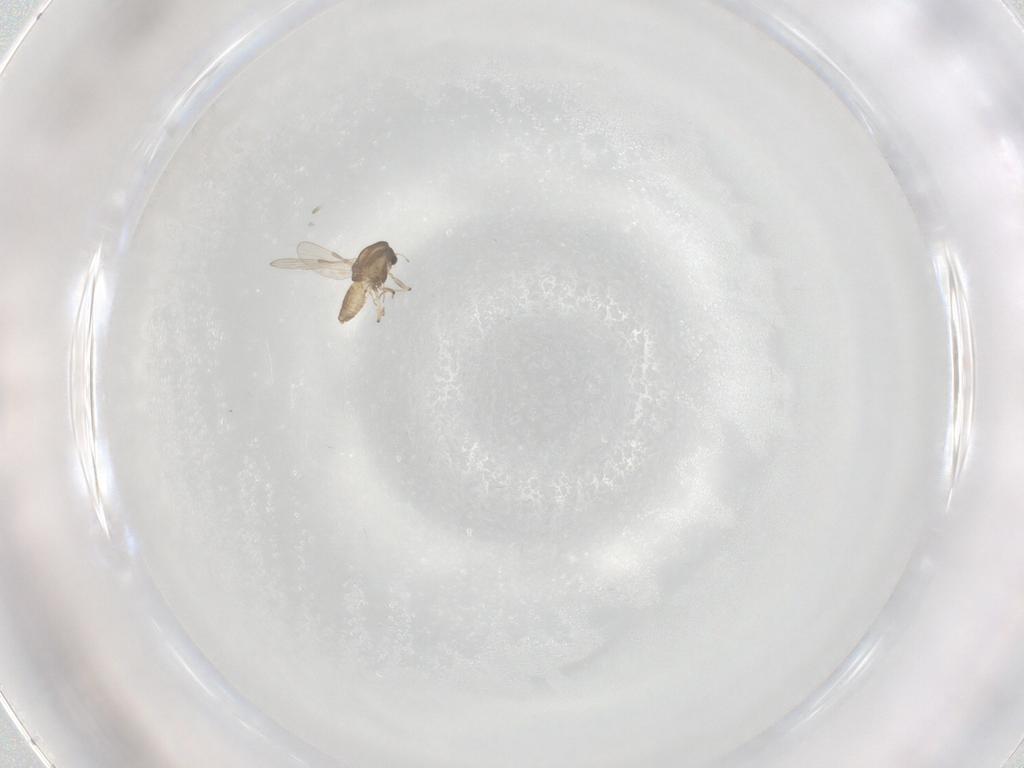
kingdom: Animalia
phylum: Arthropoda
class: Insecta
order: Diptera
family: Chironomidae
